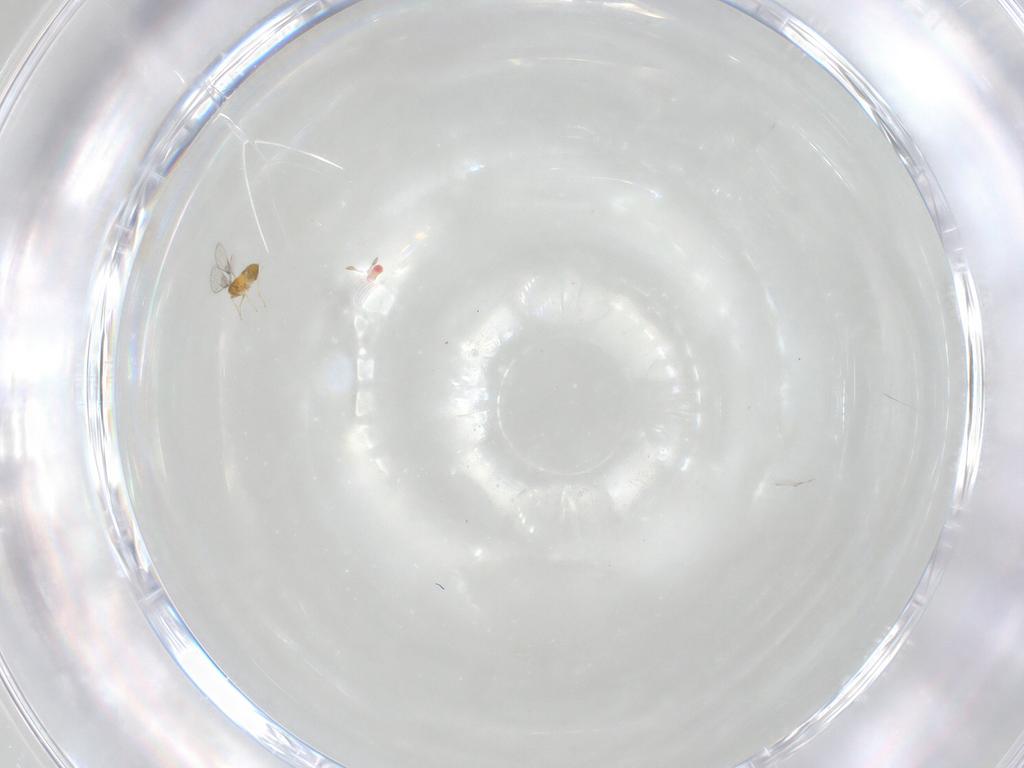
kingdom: Animalia
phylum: Arthropoda
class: Insecta
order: Hymenoptera
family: Trichogrammatidae
